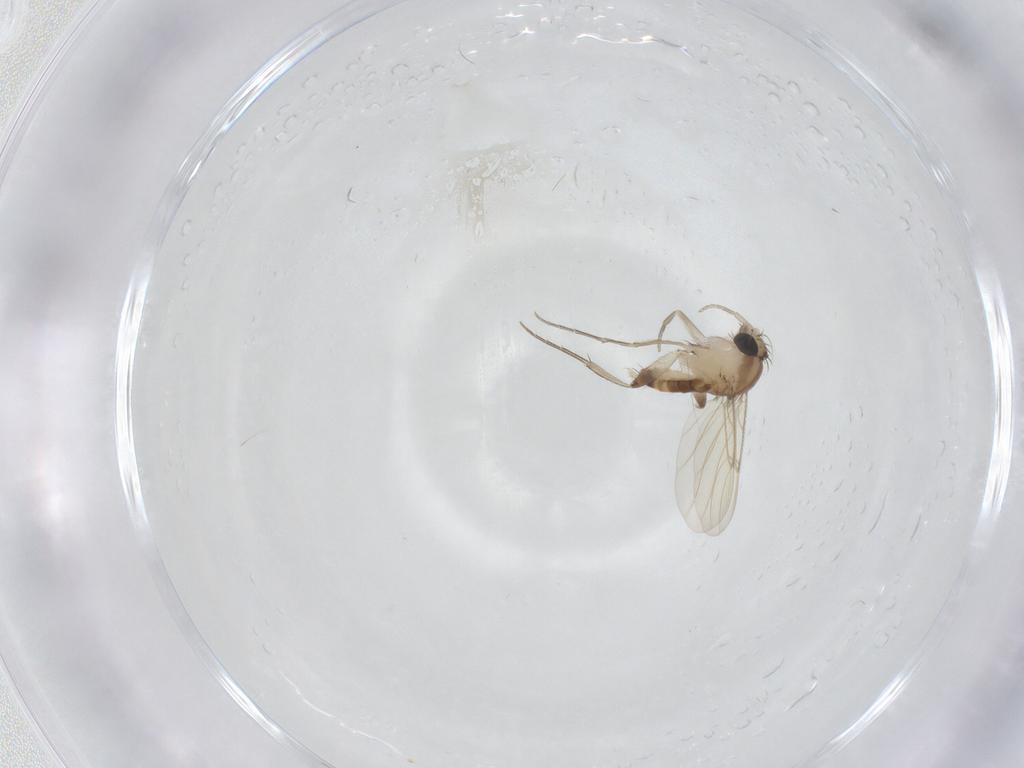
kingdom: Animalia
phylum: Arthropoda
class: Insecta
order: Diptera
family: Phoridae
